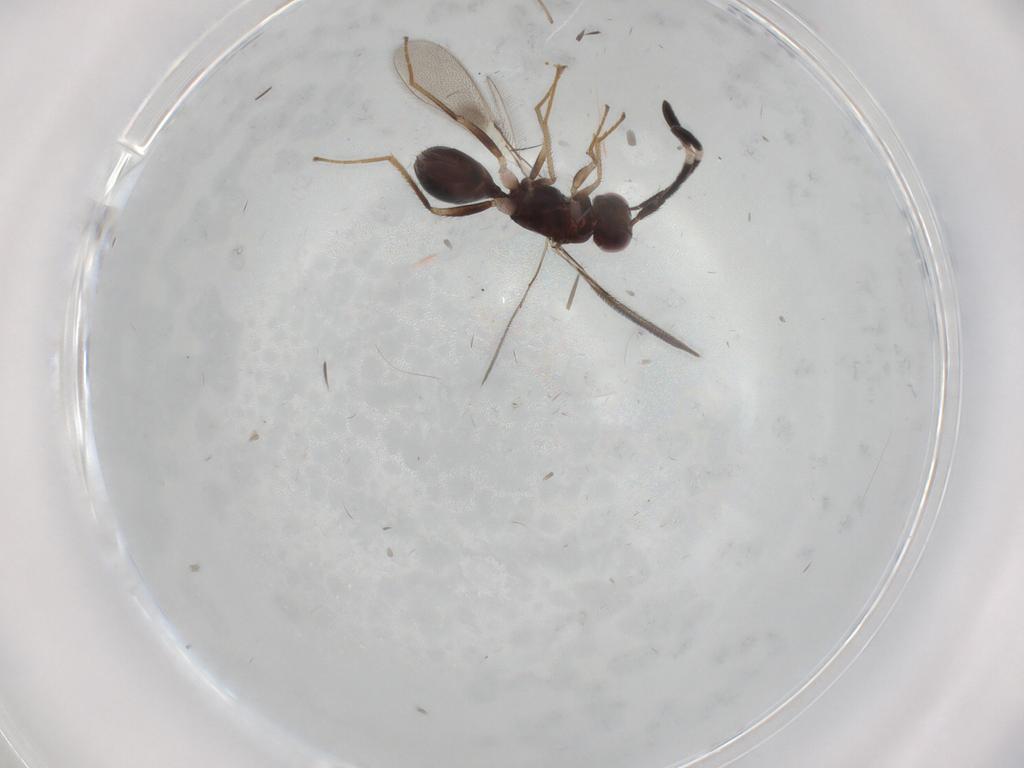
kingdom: Animalia
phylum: Arthropoda
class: Insecta
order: Hymenoptera
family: Mymaridae
